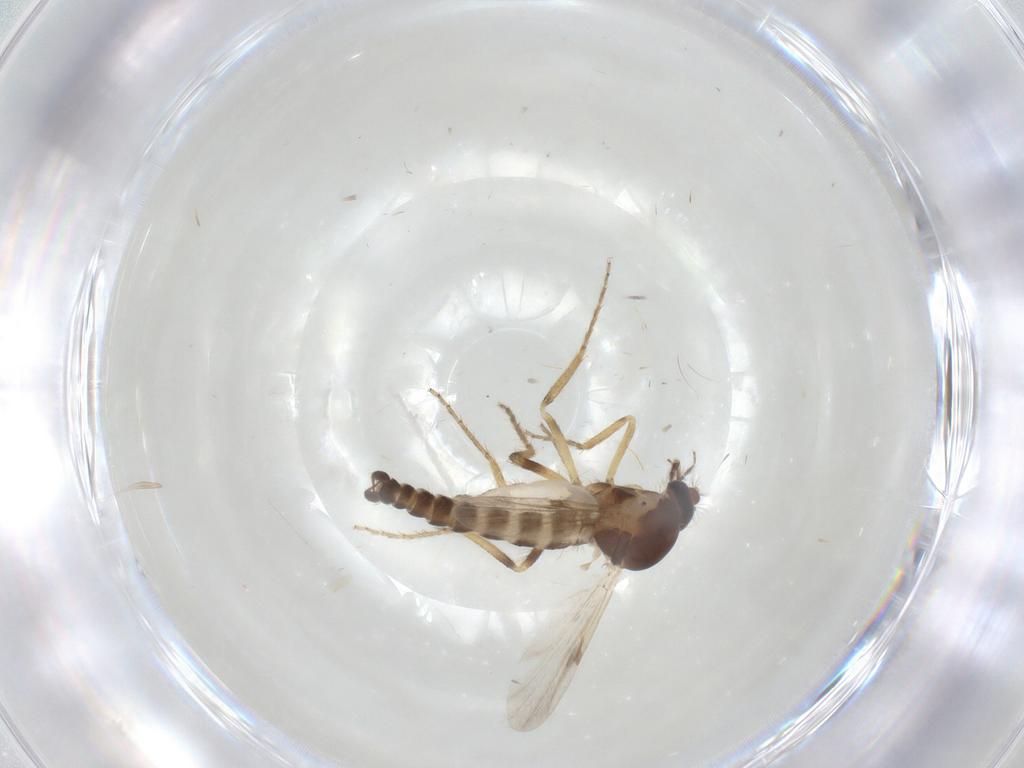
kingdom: Animalia
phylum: Arthropoda
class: Insecta
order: Diptera
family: Ceratopogonidae
